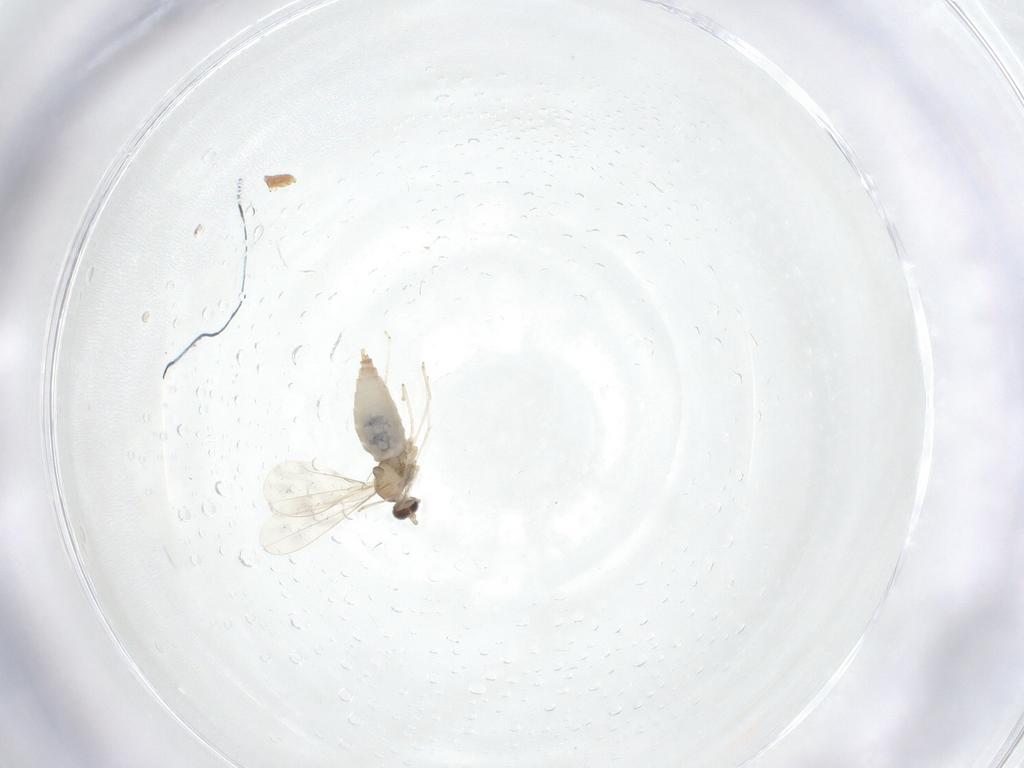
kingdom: Animalia
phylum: Arthropoda
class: Insecta
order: Diptera
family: Cecidomyiidae
